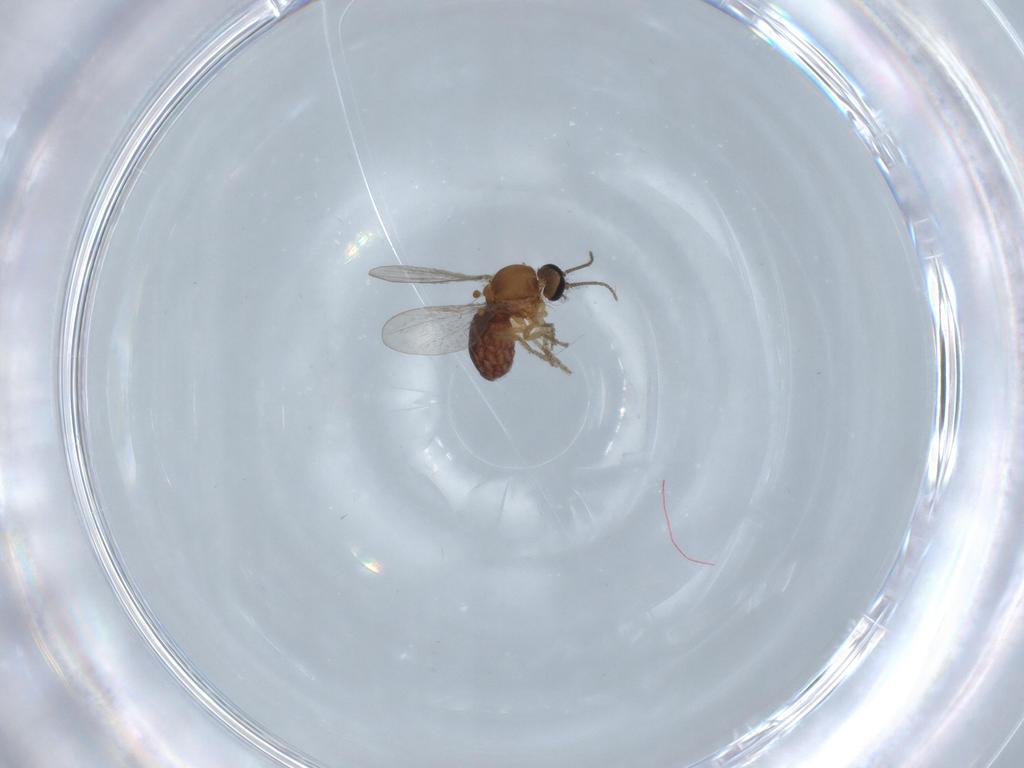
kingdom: Animalia
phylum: Arthropoda
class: Insecta
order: Diptera
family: Ceratopogonidae
